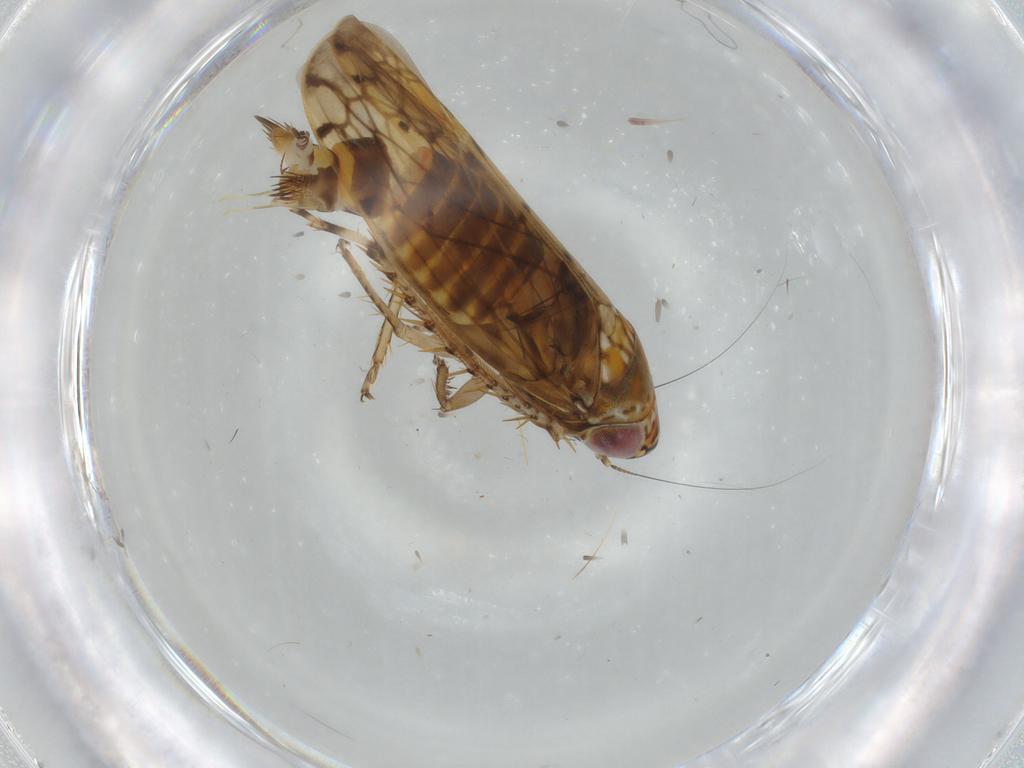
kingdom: Animalia
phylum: Arthropoda
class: Insecta
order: Hemiptera
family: Cicadellidae
